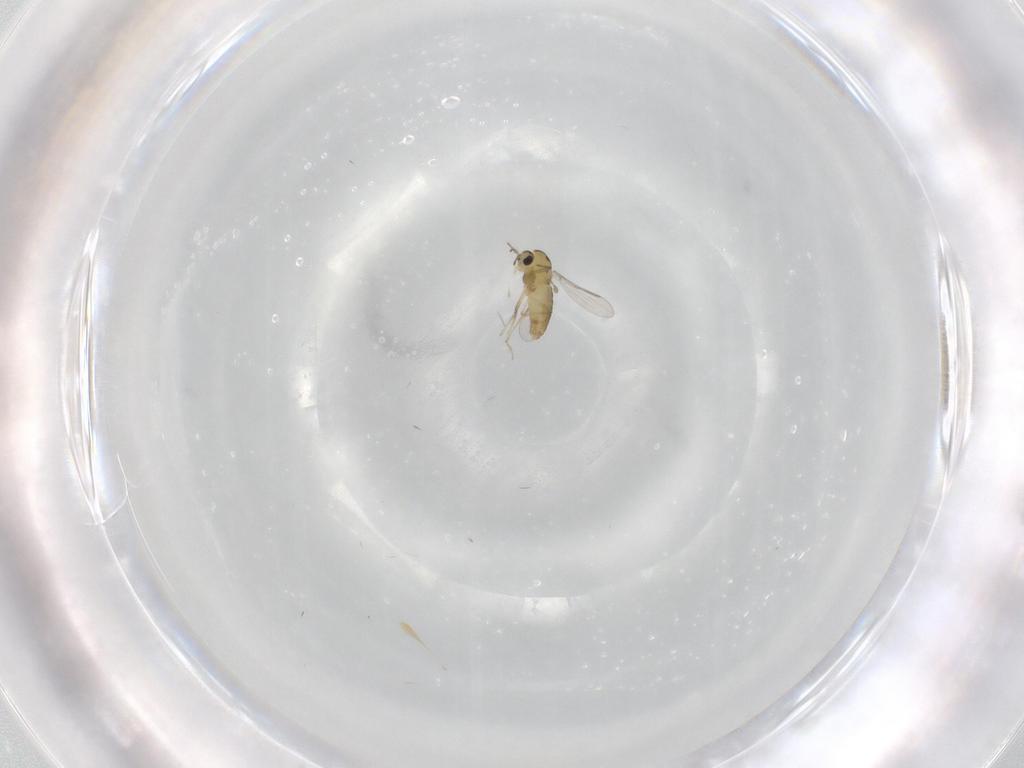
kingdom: Animalia
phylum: Arthropoda
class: Insecta
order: Diptera
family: Chironomidae
